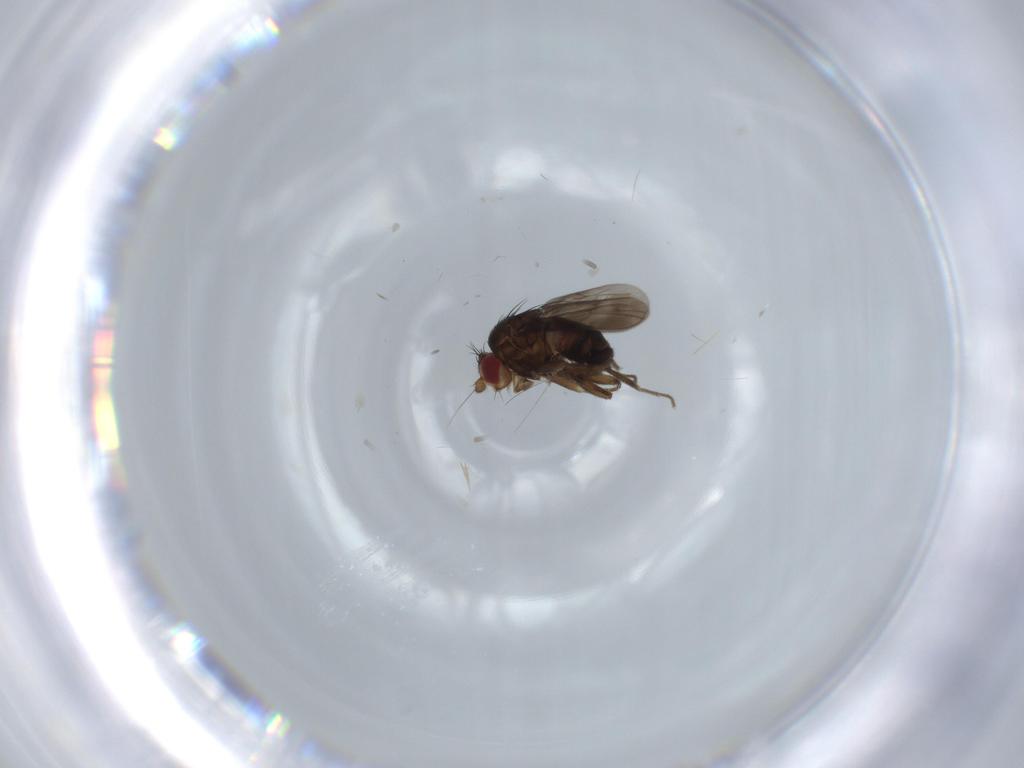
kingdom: Animalia
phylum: Arthropoda
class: Insecta
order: Diptera
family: Sphaeroceridae
